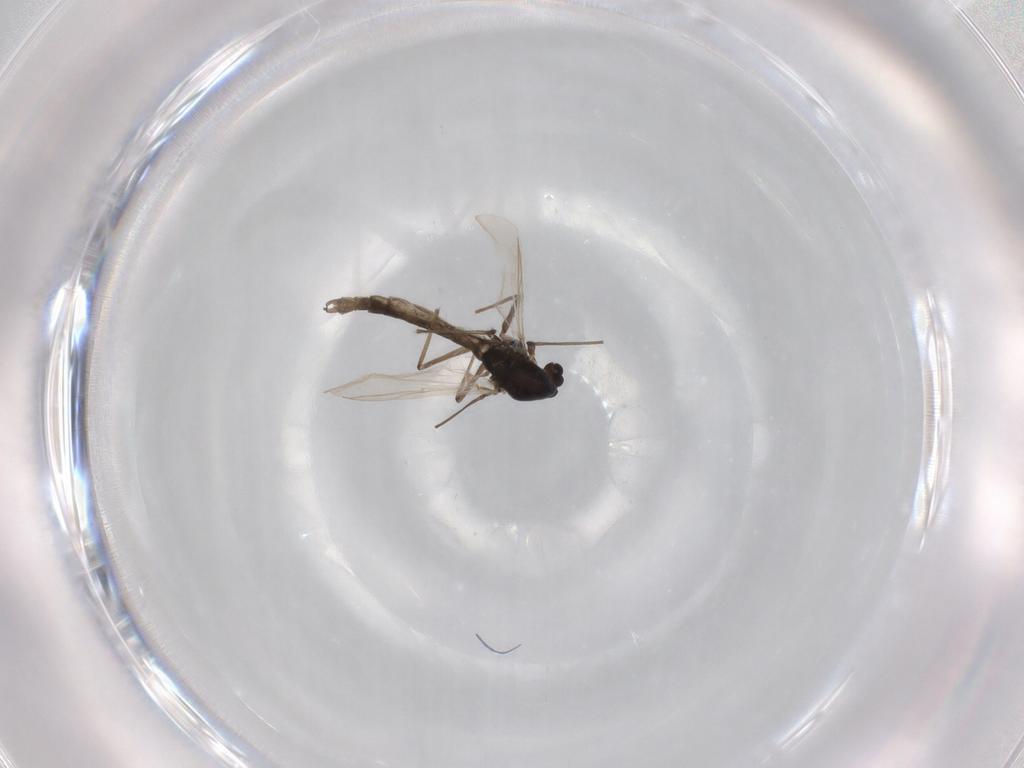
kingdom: Animalia
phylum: Arthropoda
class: Insecta
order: Diptera
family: Chironomidae
